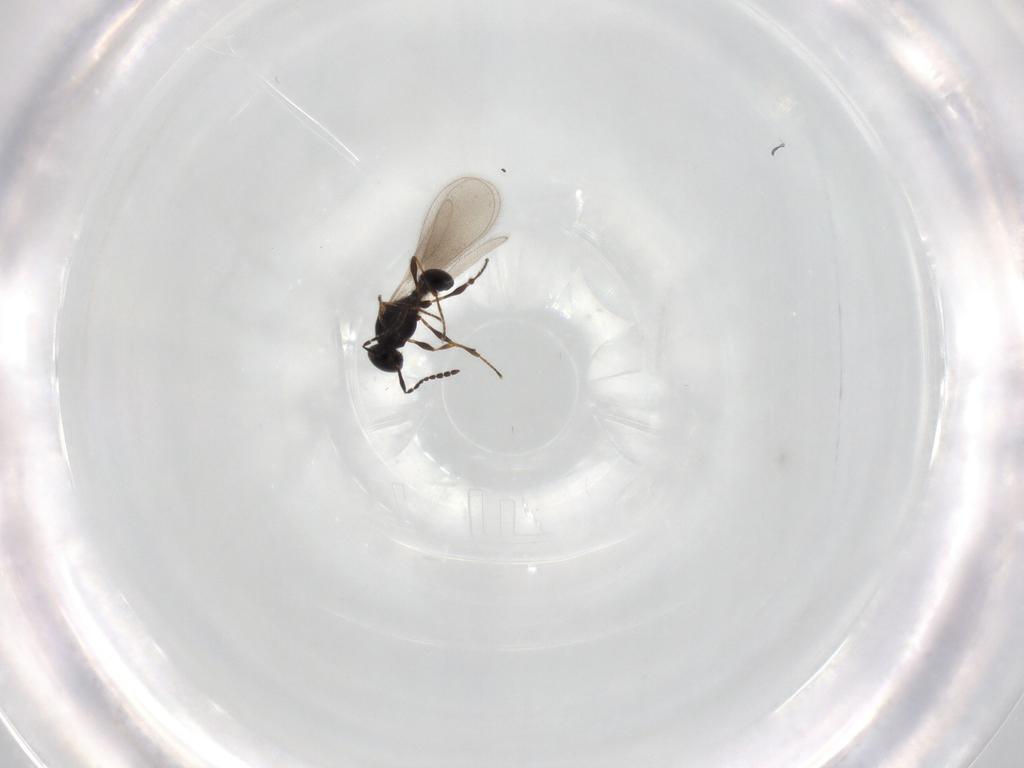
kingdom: Animalia
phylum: Arthropoda
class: Insecta
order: Hymenoptera
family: Platygastridae
